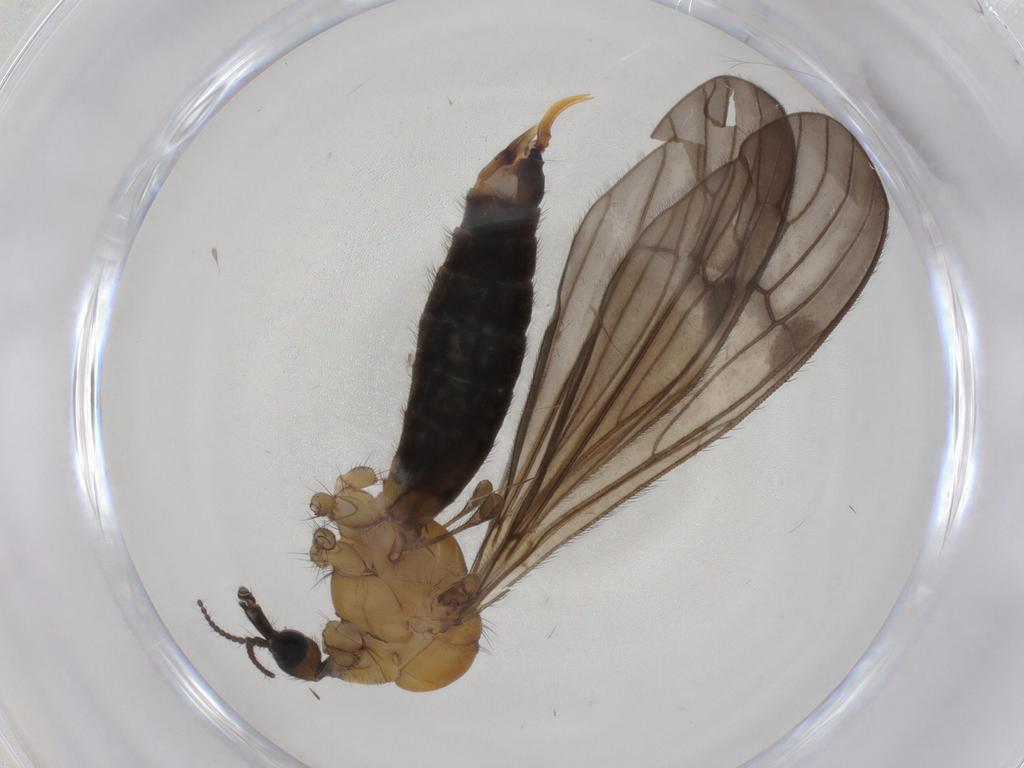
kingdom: Animalia
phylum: Arthropoda
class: Insecta
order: Diptera
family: Limoniidae
